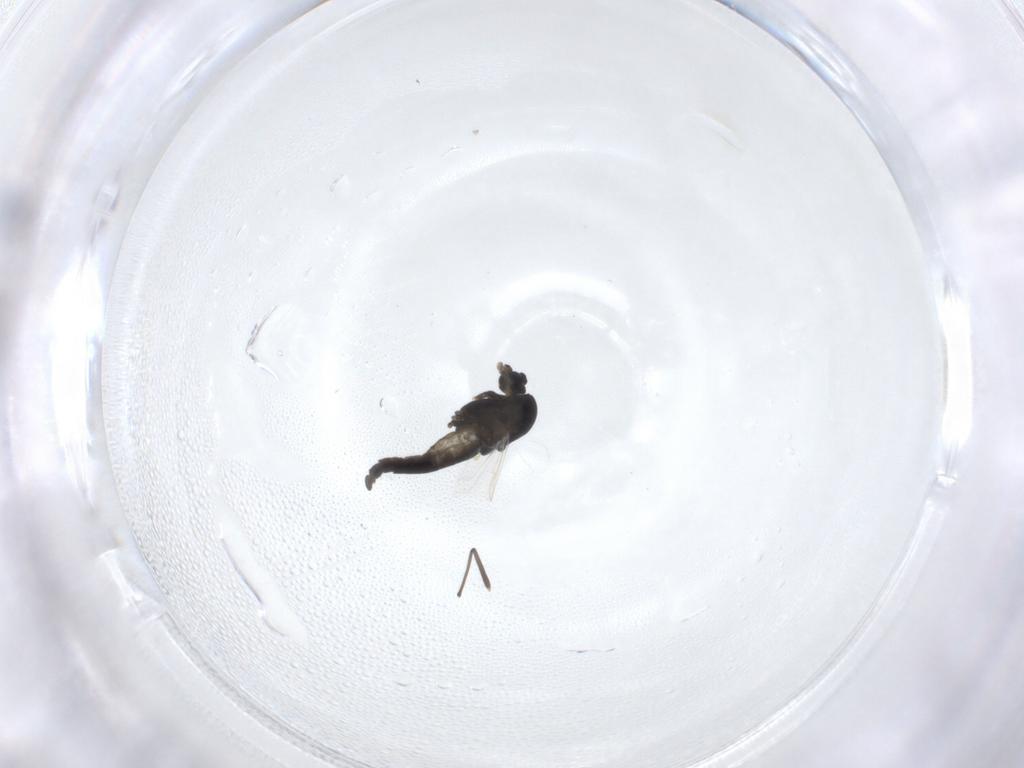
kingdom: Animalia
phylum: Arthropoda
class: Insecta
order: Diptera
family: Chironomidae
